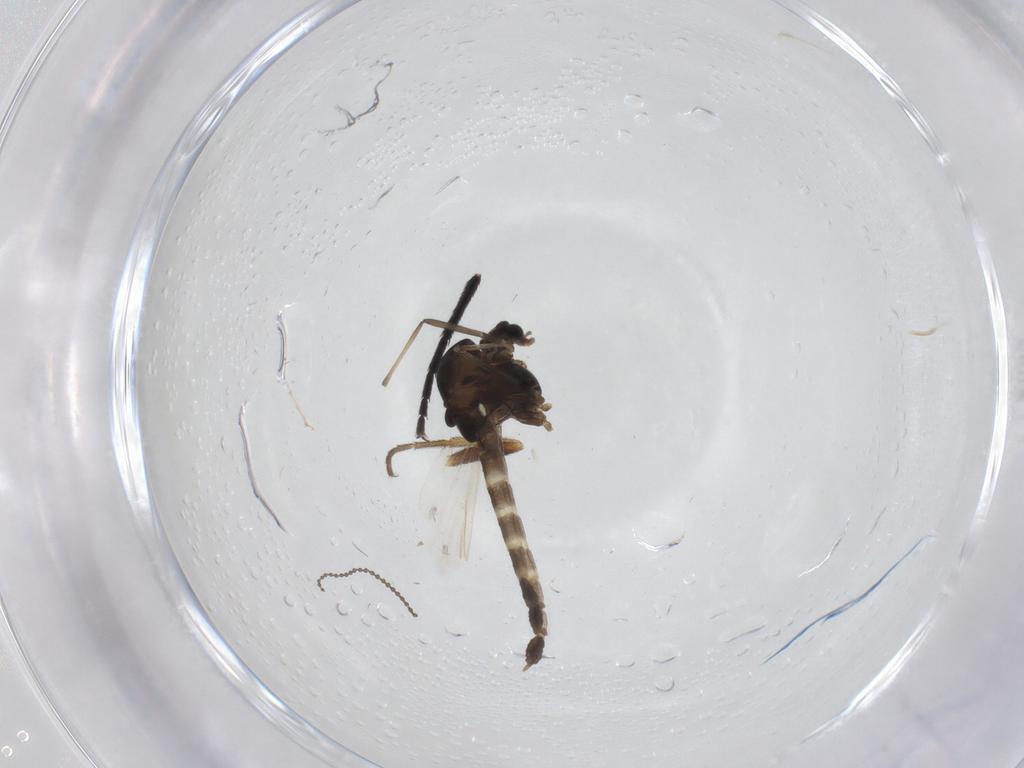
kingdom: Animalia
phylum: Arthropoda
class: Insecta
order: Diptera
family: Tachinidae
